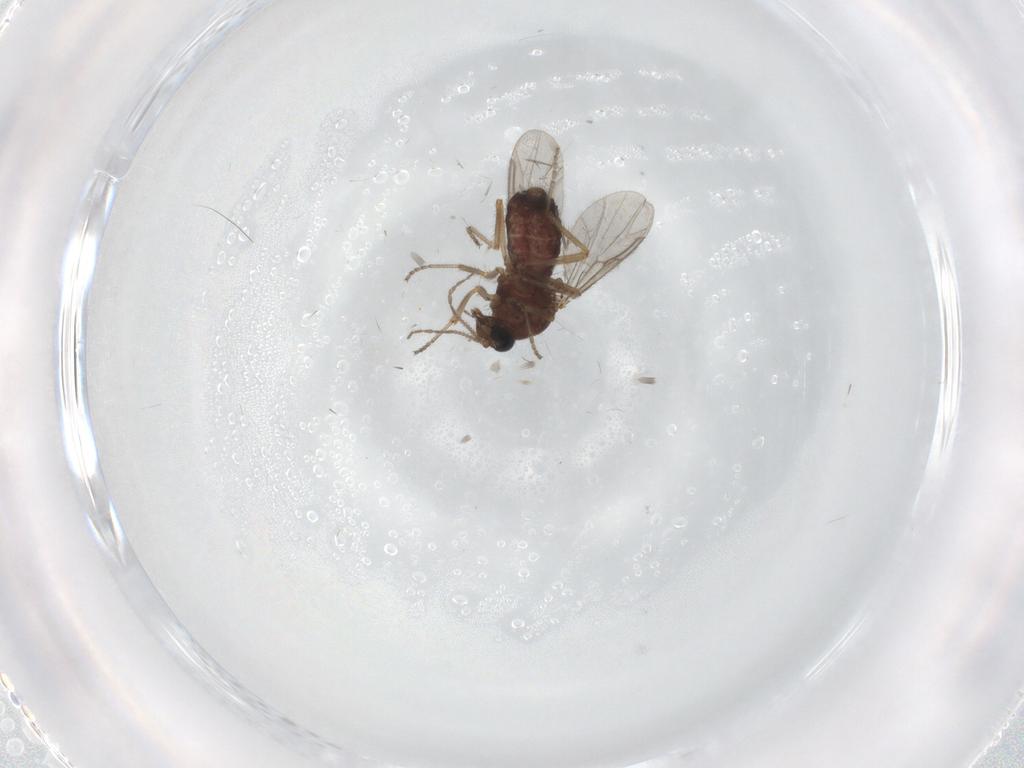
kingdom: Animalia
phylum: Arthropoda
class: Insecta
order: Diptera
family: Ceratopogonidae
